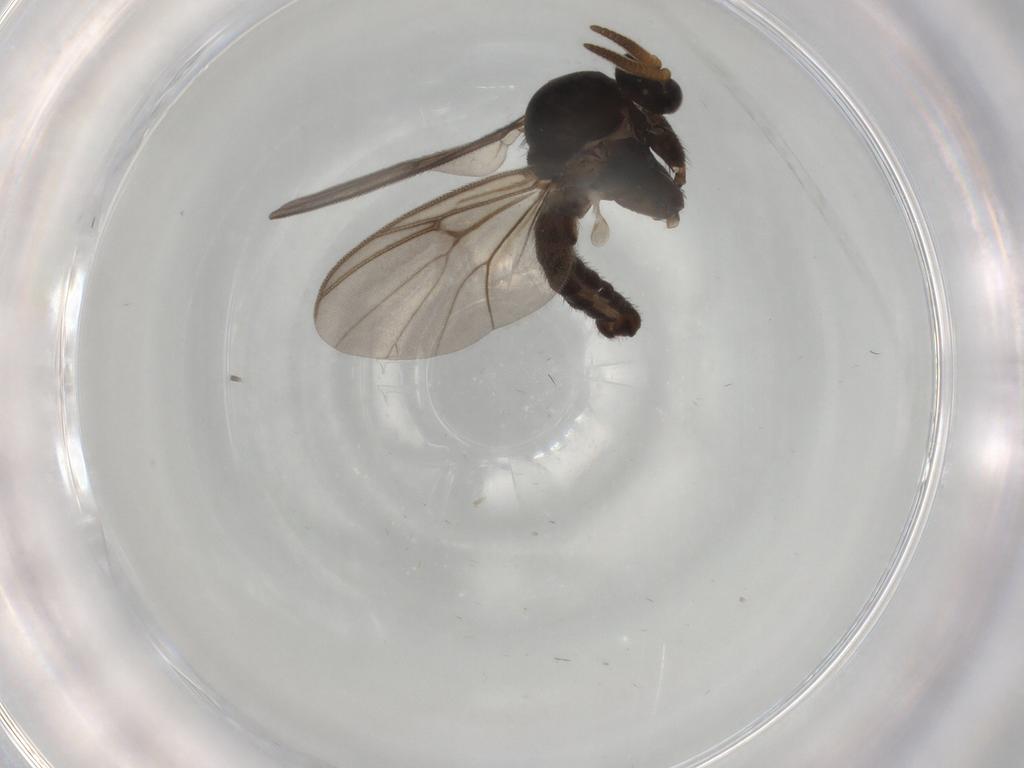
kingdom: Animalia
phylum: Arthropoda
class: Insecta
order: Diptera
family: Mycetophilidae
